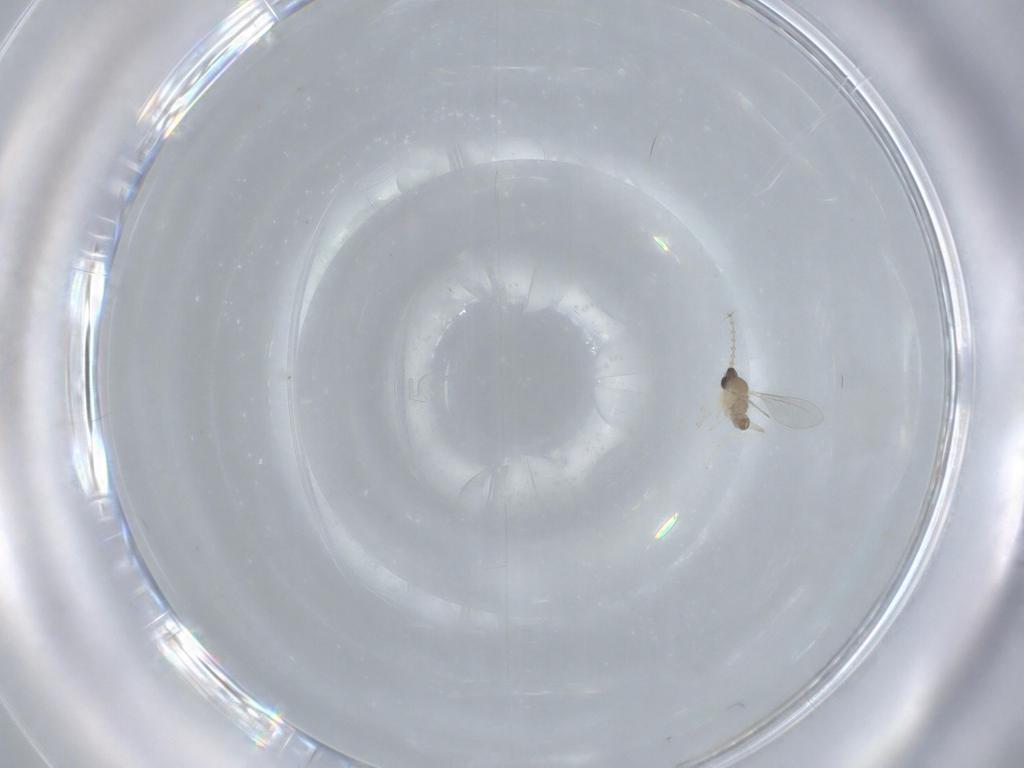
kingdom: Animalia
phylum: Arthropoda
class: Insecta
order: Diptera
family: Cecidomyiidae
